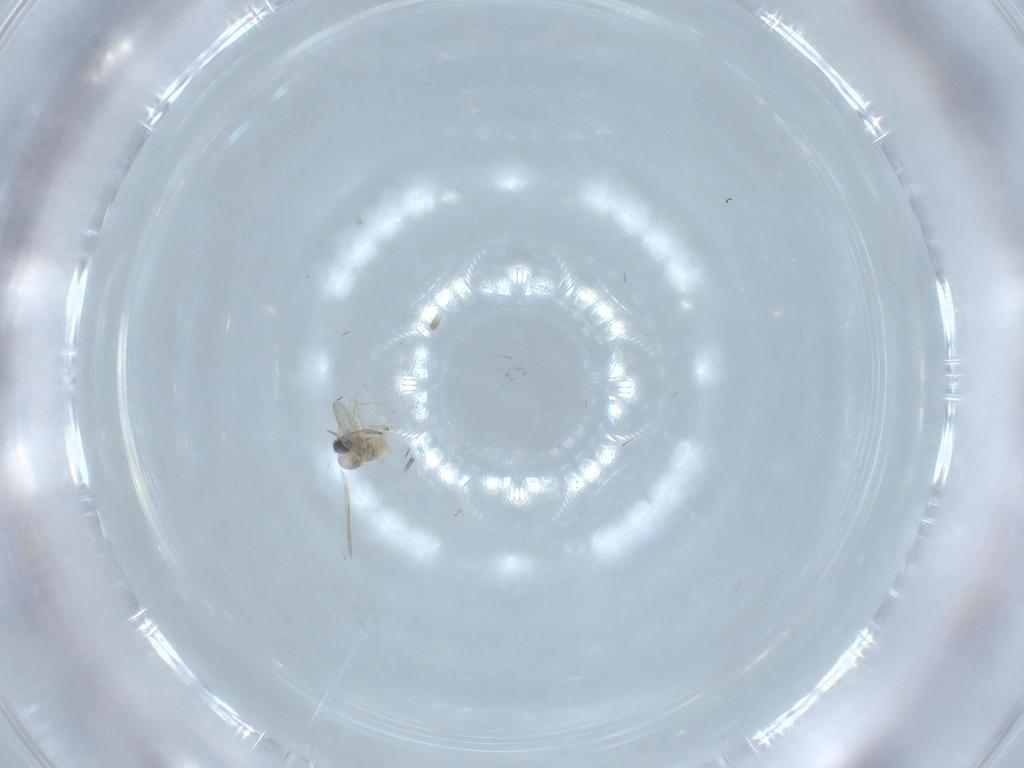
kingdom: Animalia
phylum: Arthropoda
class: Insecta
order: Diptera
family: Cecidomyiidae
